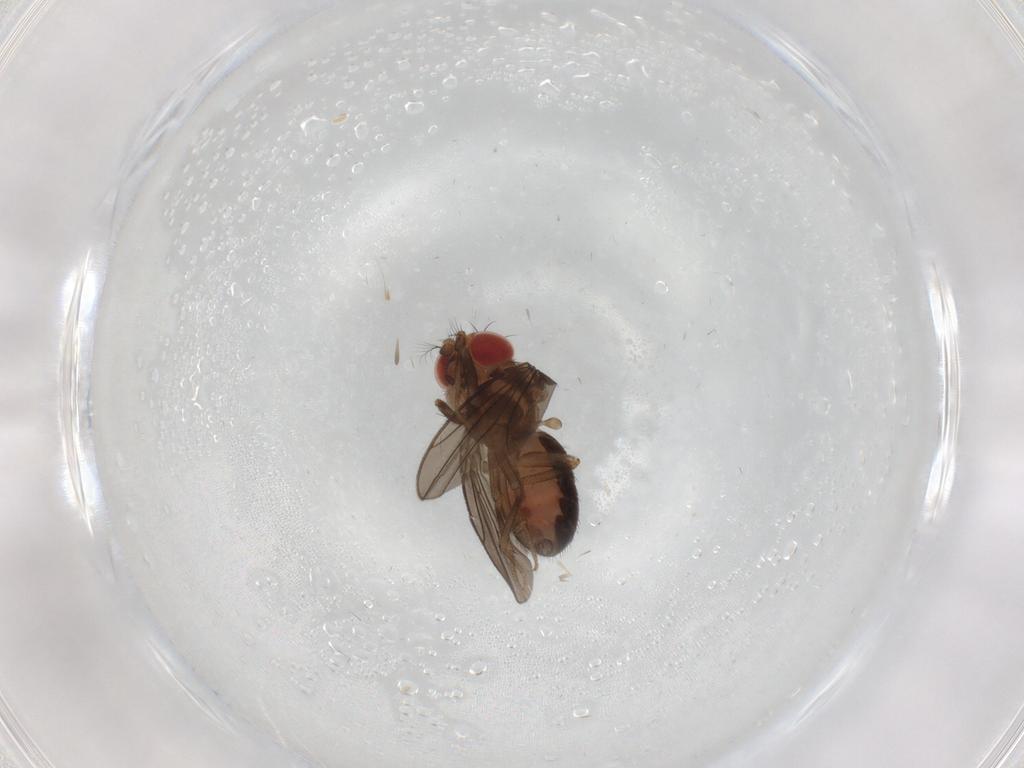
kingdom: Animalia
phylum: Arthropoda
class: Insecta
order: Diptera
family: Drosophilidae
